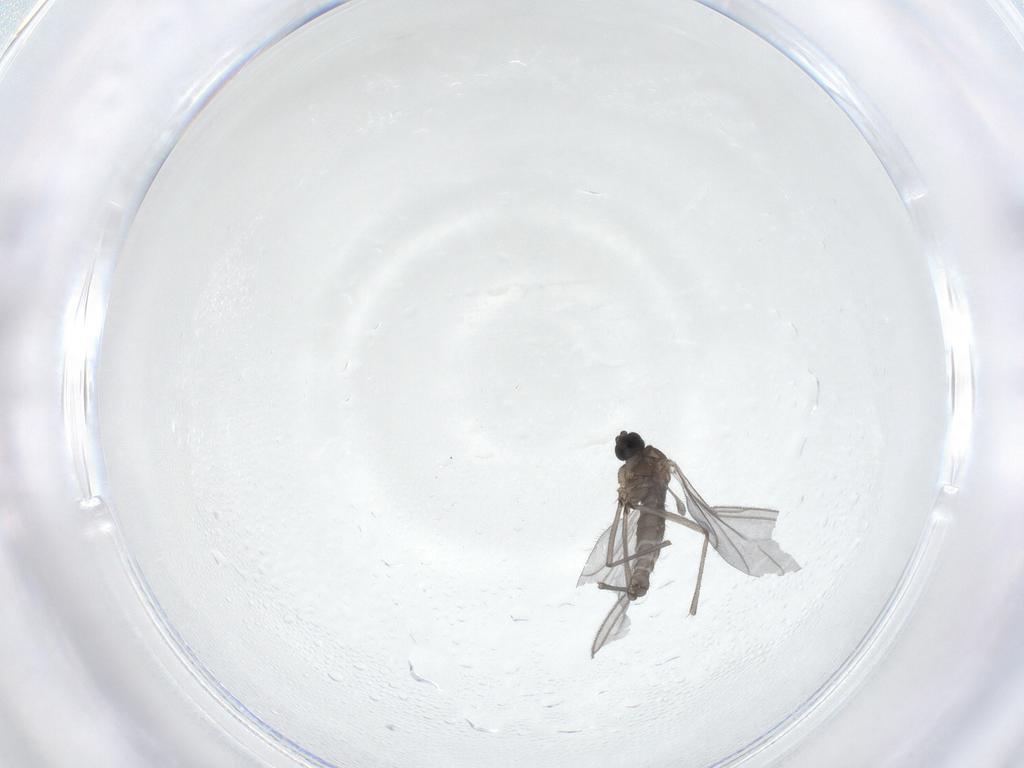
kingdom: Animalia
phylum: Arthropoda
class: Insecta
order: Diptera
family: Cecidomyiidae
